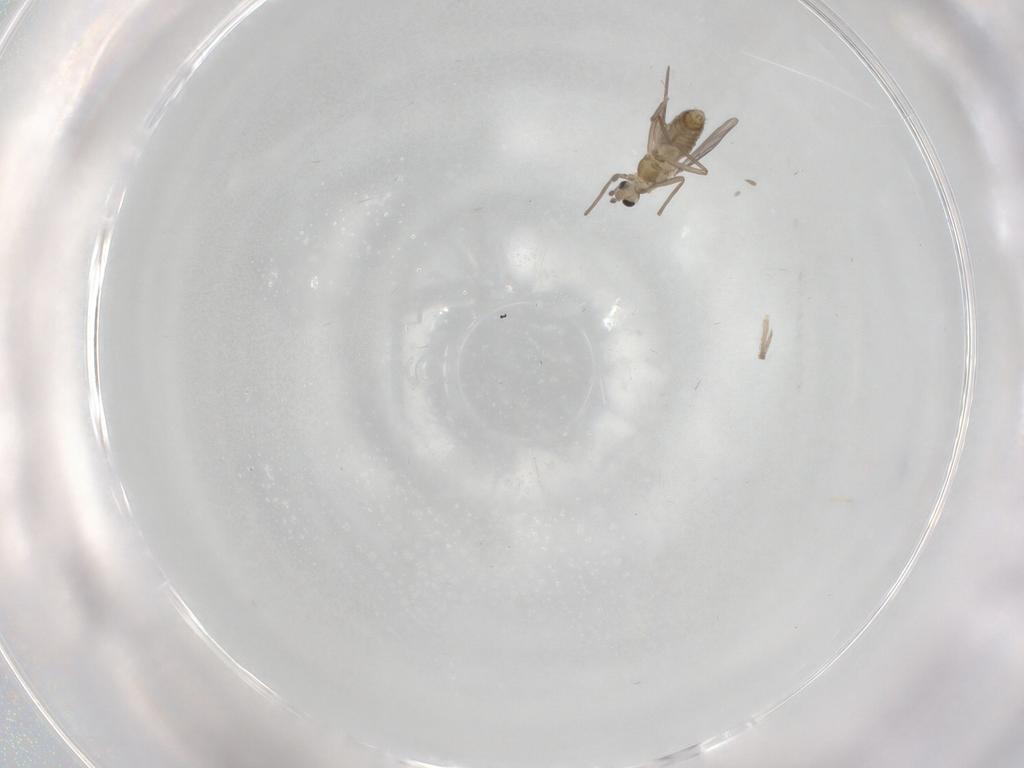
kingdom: Animalia
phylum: Arthropoda
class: Insecta
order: Diptera
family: Chironomidae
